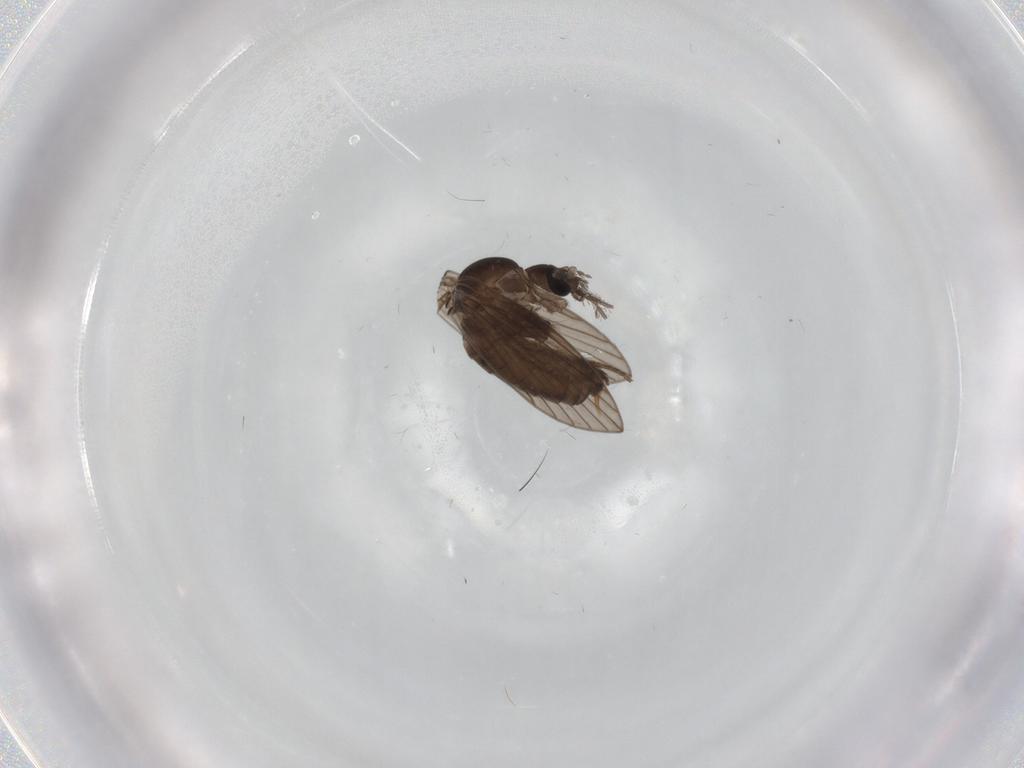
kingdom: Animalia
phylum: Arthropoda
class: Insecta
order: Diptera
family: Psychodidae
